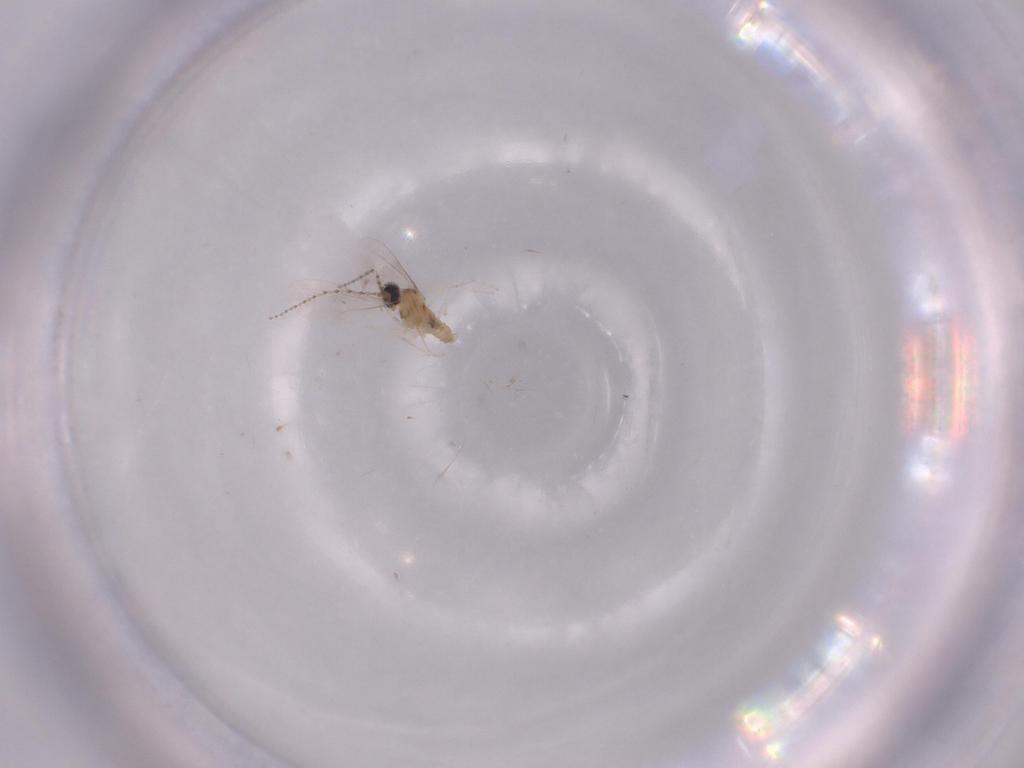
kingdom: Animalia
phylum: Arthropoda
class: Insecta
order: Diptera
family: Cecidomyiidae
